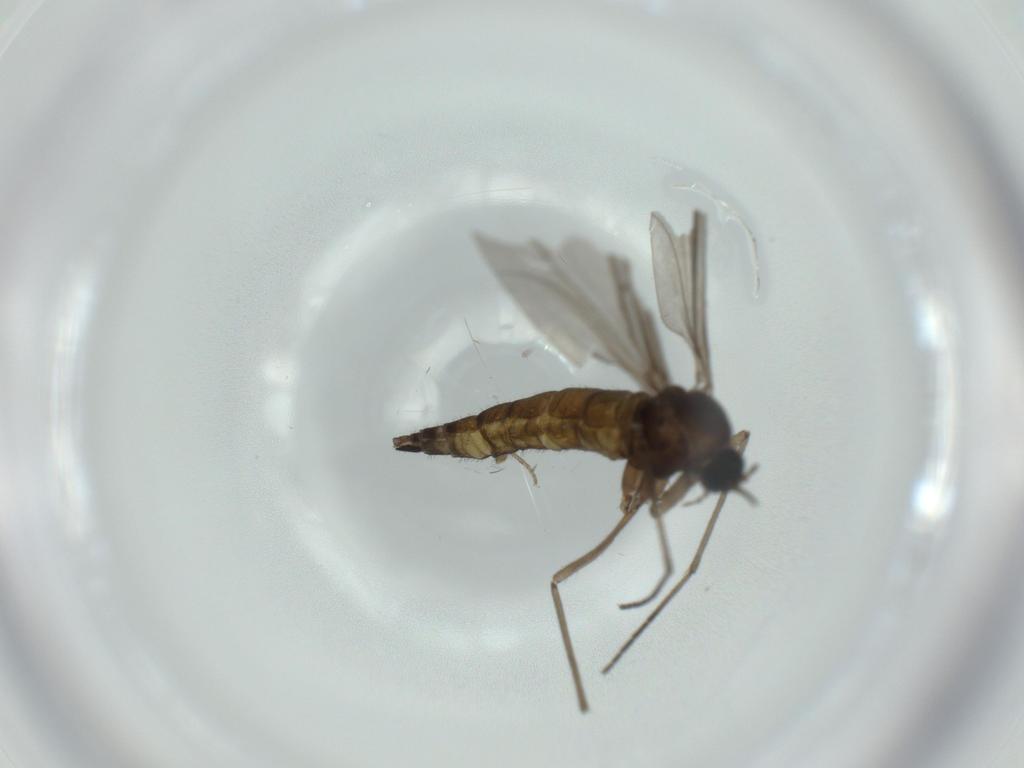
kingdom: Animalia
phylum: Arthropoda
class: Insecta
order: Diptera
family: Sciaridae
